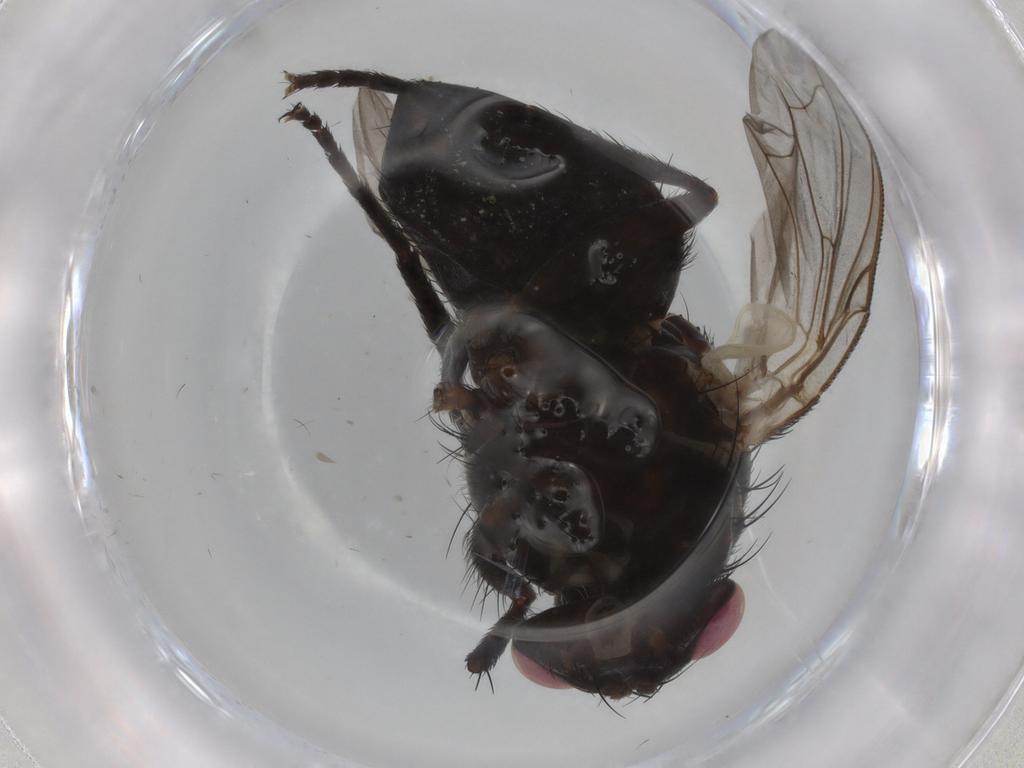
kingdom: Animalia
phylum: Arthropoda
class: Insecta
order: Diptera
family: Tachinidae
